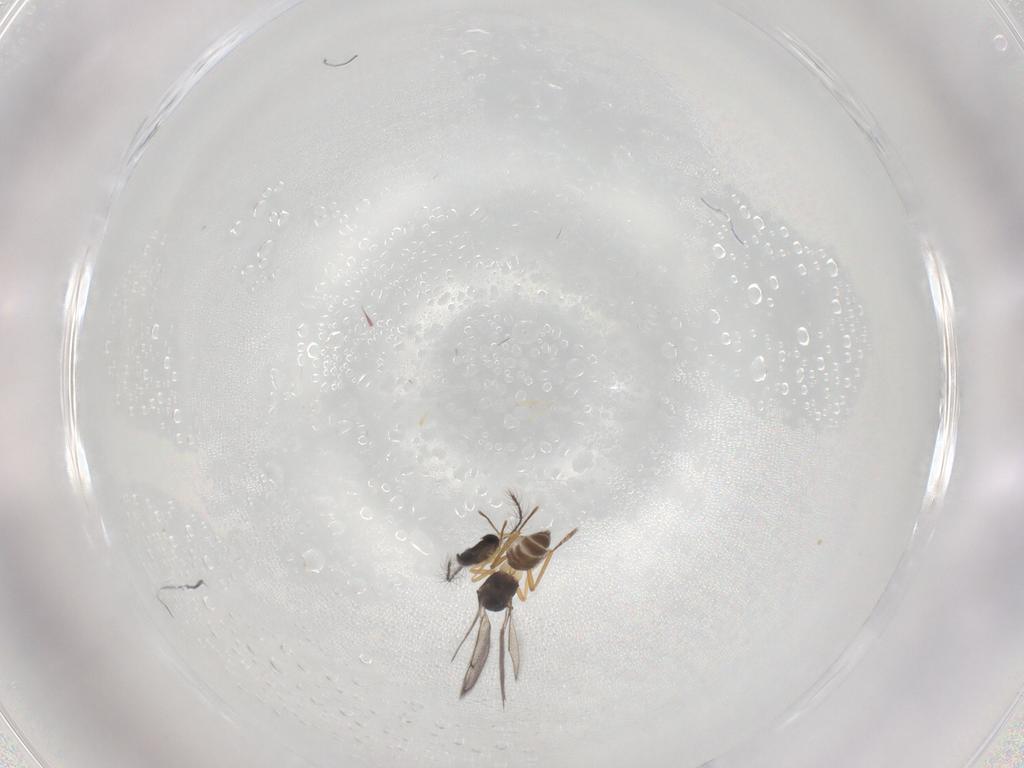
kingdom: Animalia
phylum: Arthropoda
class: Insecta
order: Hymenoptera
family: Eulophidae
